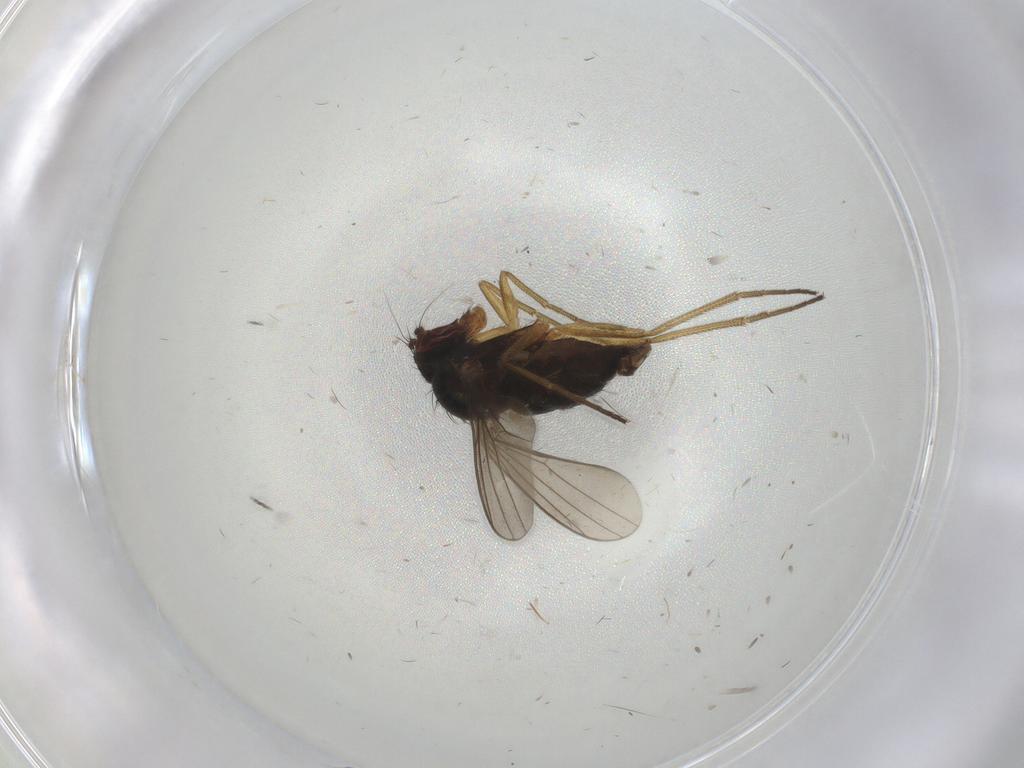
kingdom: Animalia
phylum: Arthropoda
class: Insecta
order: Diptera
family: Dolichopodidae
